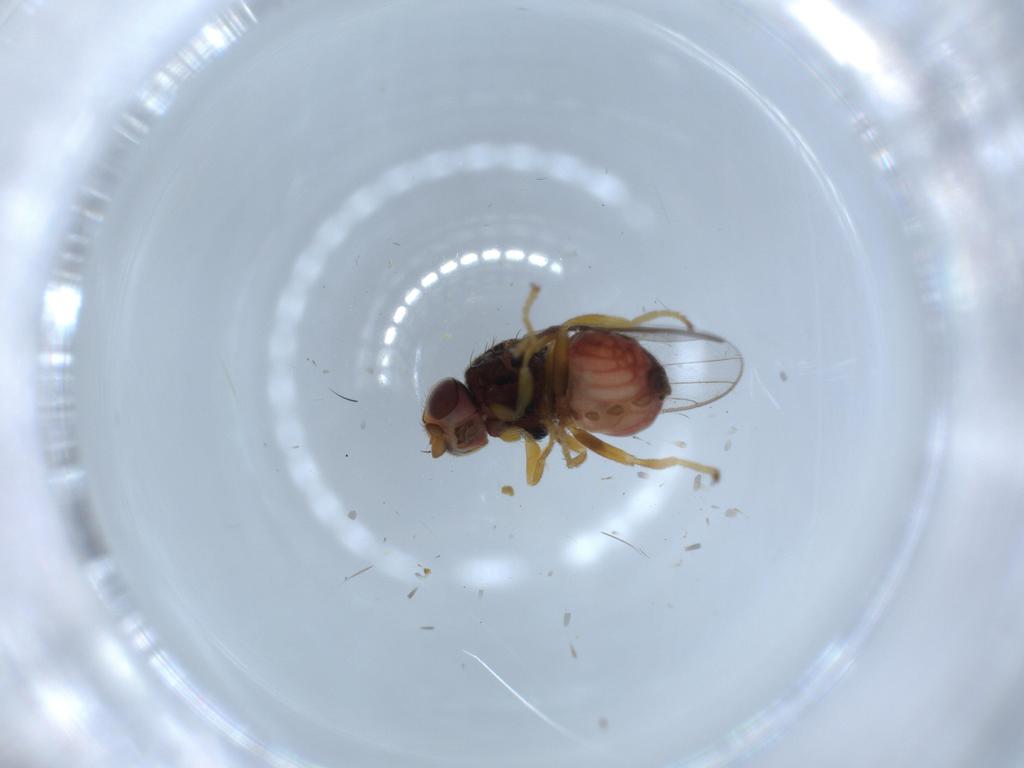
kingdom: Animalia
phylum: Arthropoda
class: Insecta
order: Diptera
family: Chloropidae
